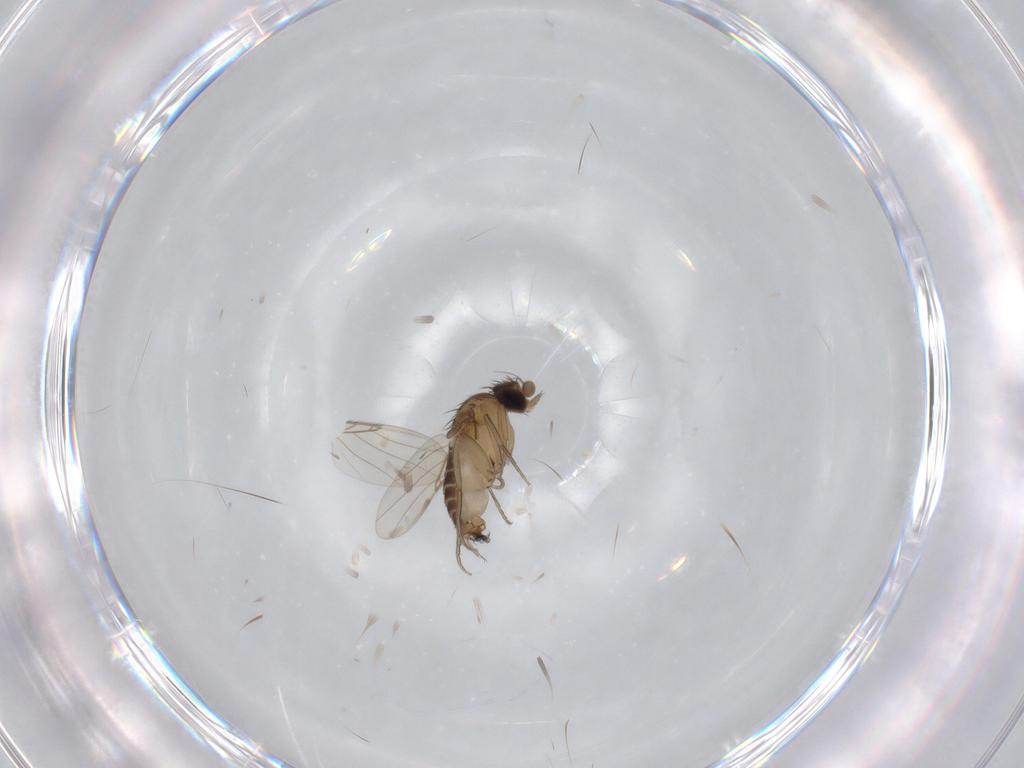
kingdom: Animalia
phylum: Arthropoda
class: Insecta
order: Diptera
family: Phoridae
